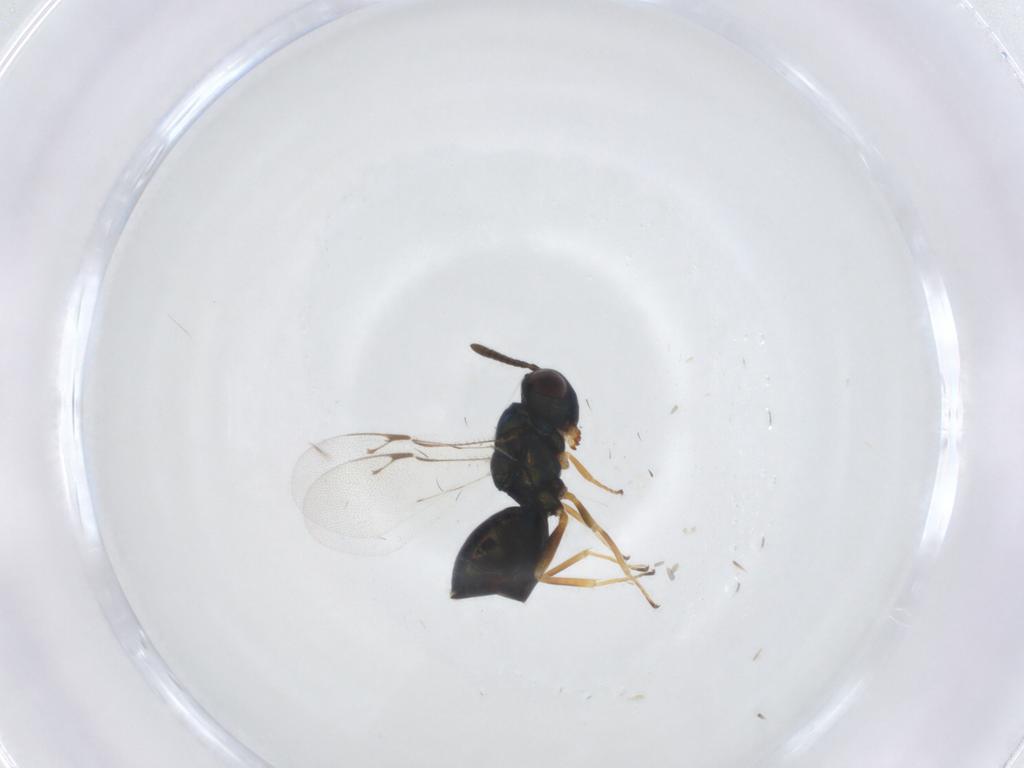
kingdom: Animalia
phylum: Arthropoda
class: Insecta
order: Hymenoptera
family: Pteromalidae
